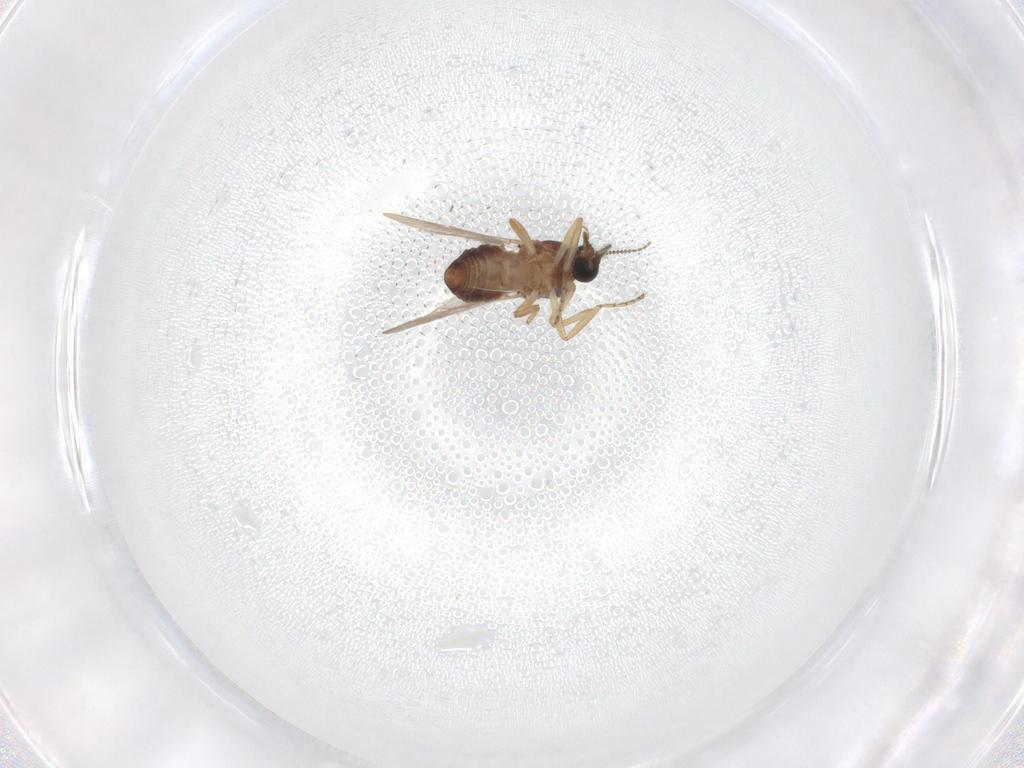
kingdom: Animalia
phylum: Arthropoda
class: Insecta
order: Diptera
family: Ceratopogonidae
